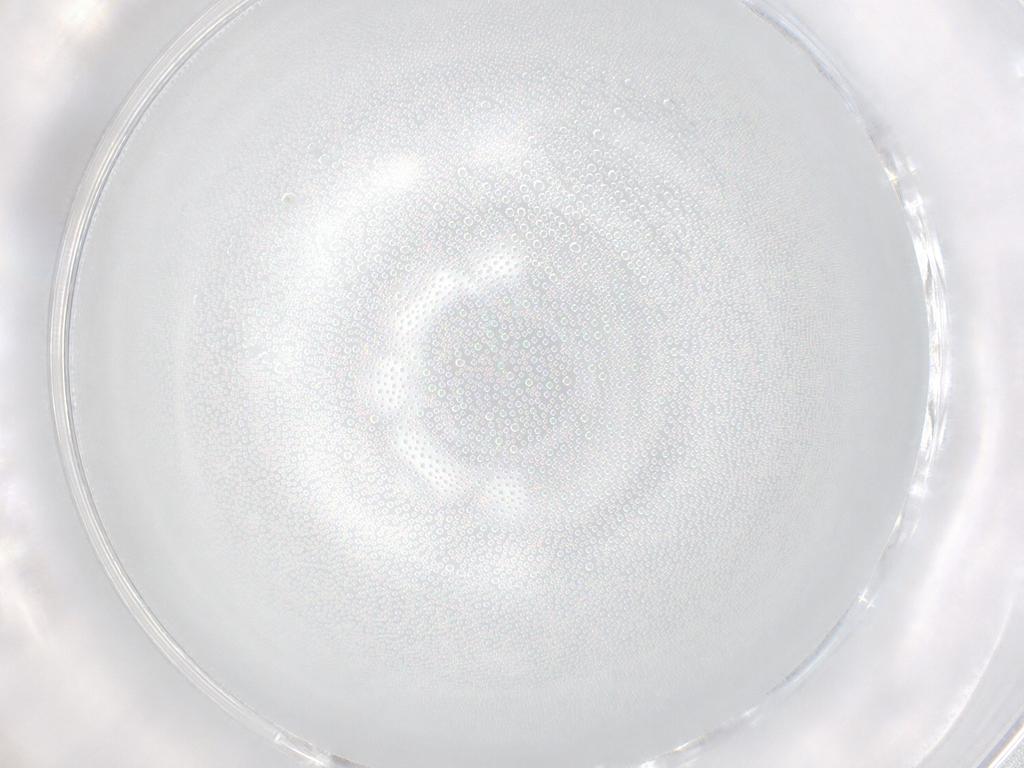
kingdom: Animalia
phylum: Arthropoda
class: Insecta
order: Hymenoptera
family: Figitidae
